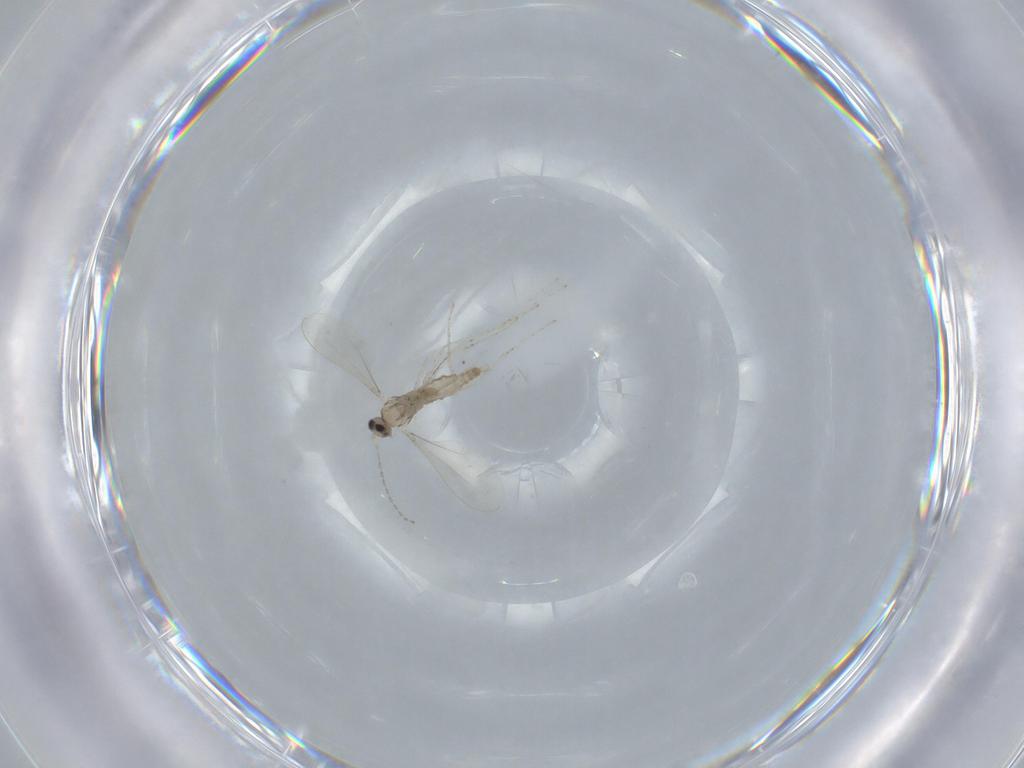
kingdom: Animalia
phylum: Arthropoda
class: Insecta
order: Diptera
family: Cecidomyiidae
